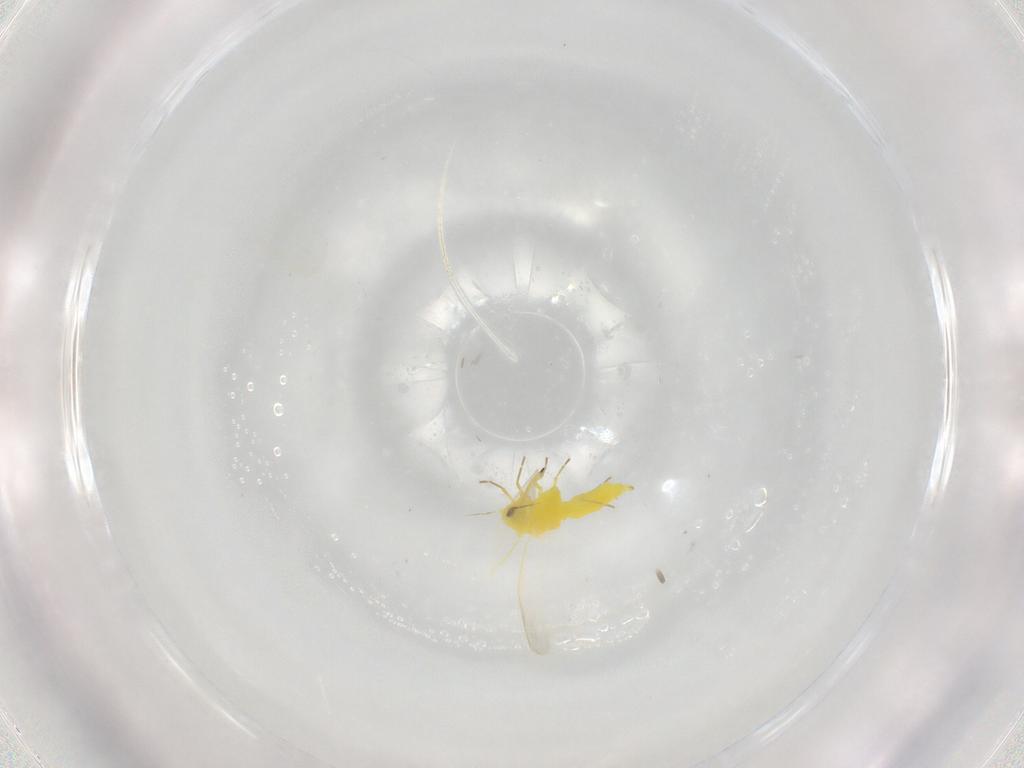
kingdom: Animalia
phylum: Arthropoda
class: Insecta
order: Hemiptera
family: Aleyrodidae
